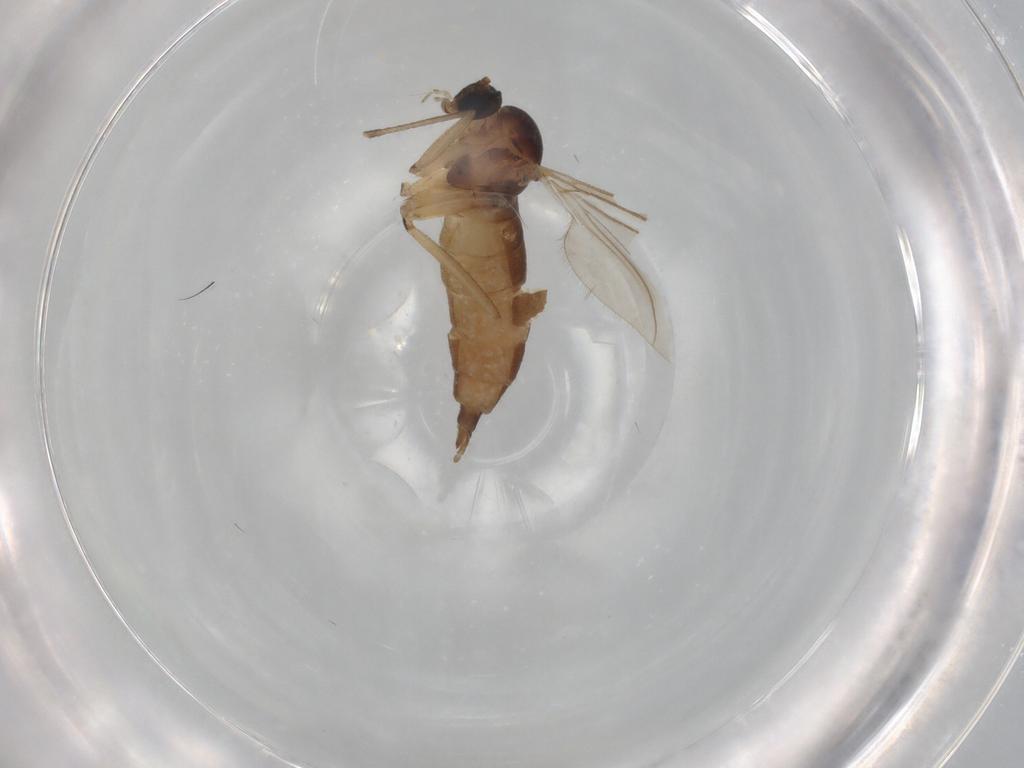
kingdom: Animalia
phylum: Arthropoda
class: Insecta
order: Diptera
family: Sciaridae
